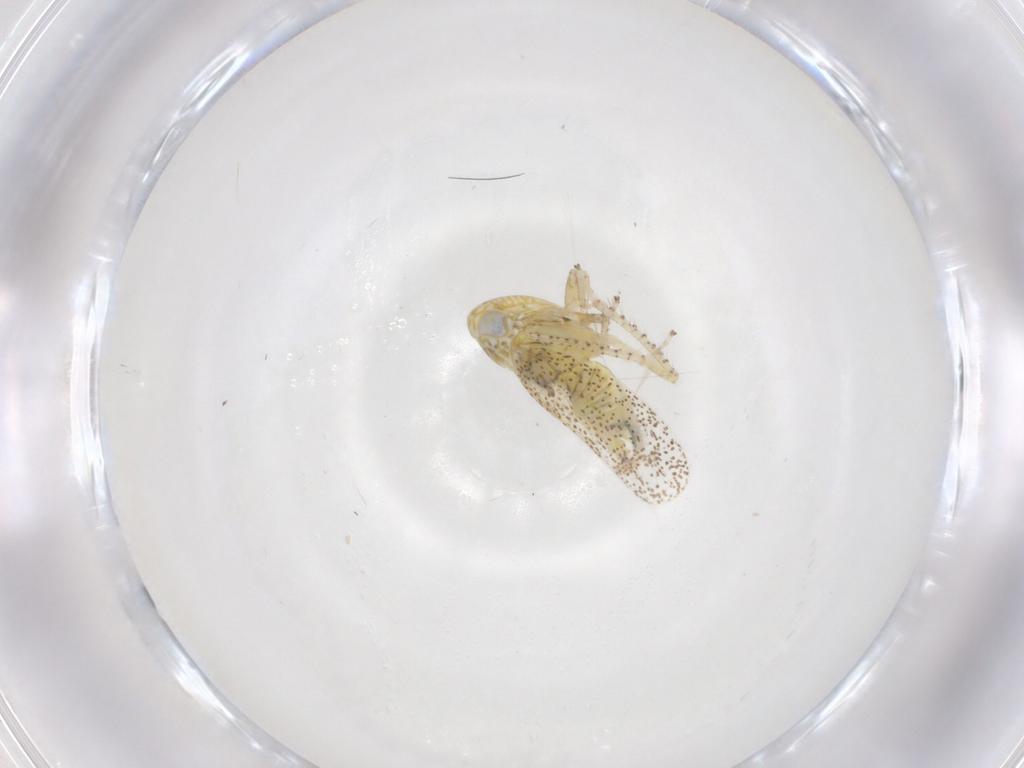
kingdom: Animalia
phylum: Arthropoda
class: Insecta
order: Hemiptera
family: Cicadellidae
